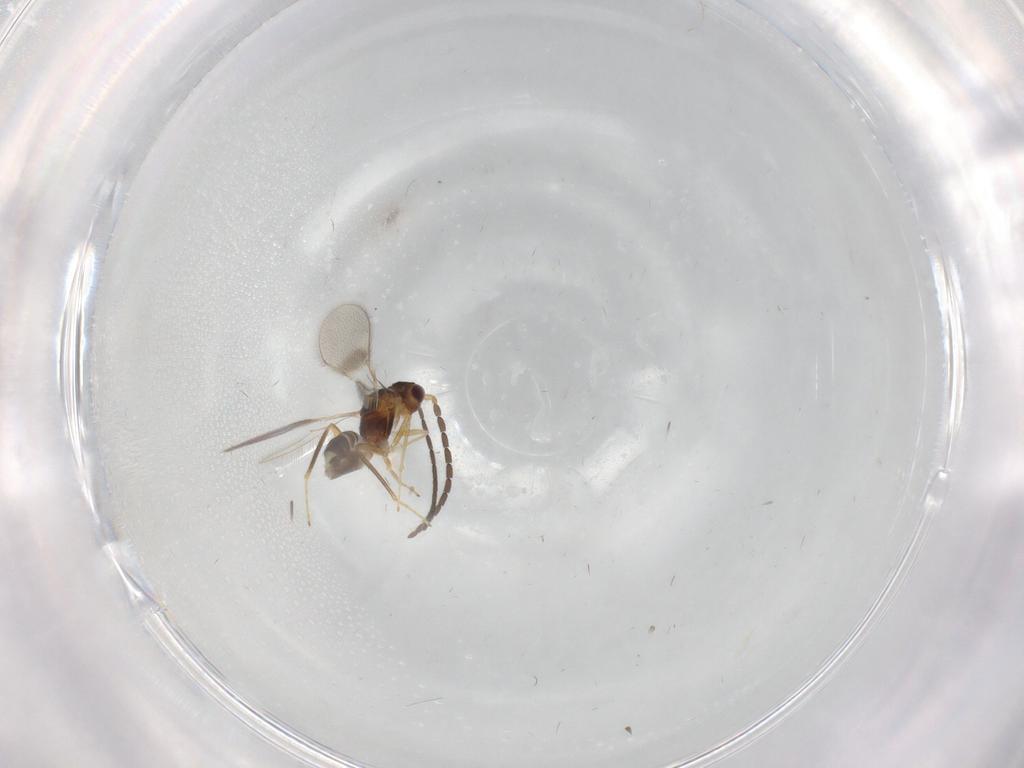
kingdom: Animalia
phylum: Arthropoda
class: Insecta
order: Hymenoptera
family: Mymaridae
